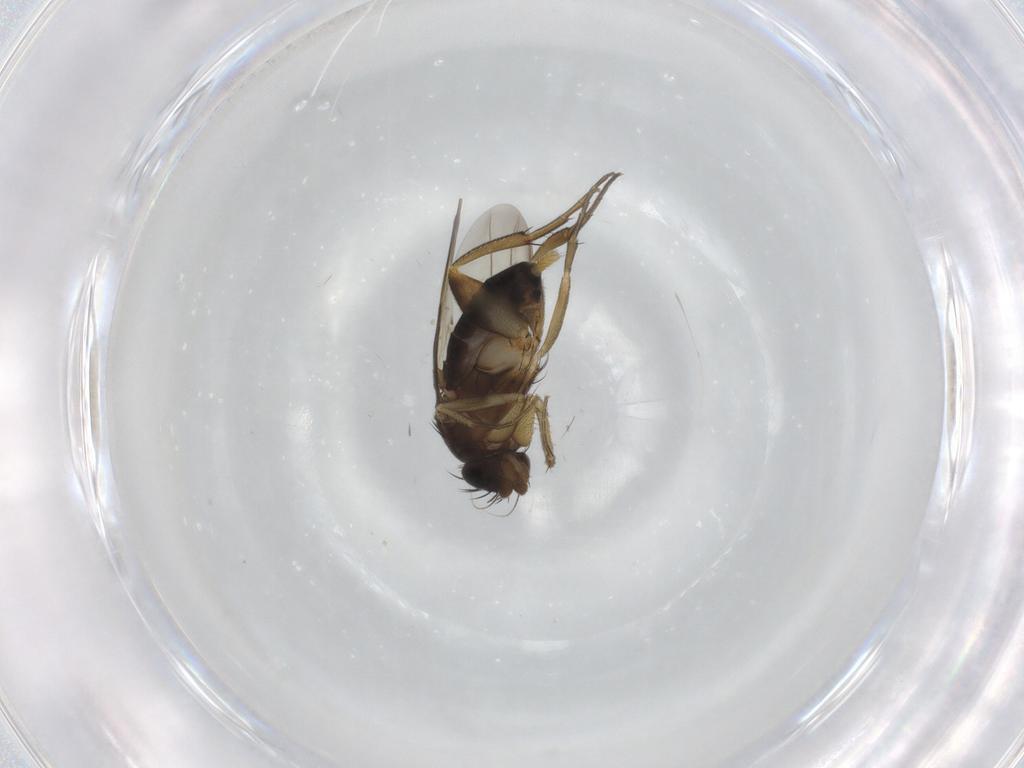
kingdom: Animalia
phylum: Arthropoda
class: Insecta
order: Diptera
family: Phoridae
